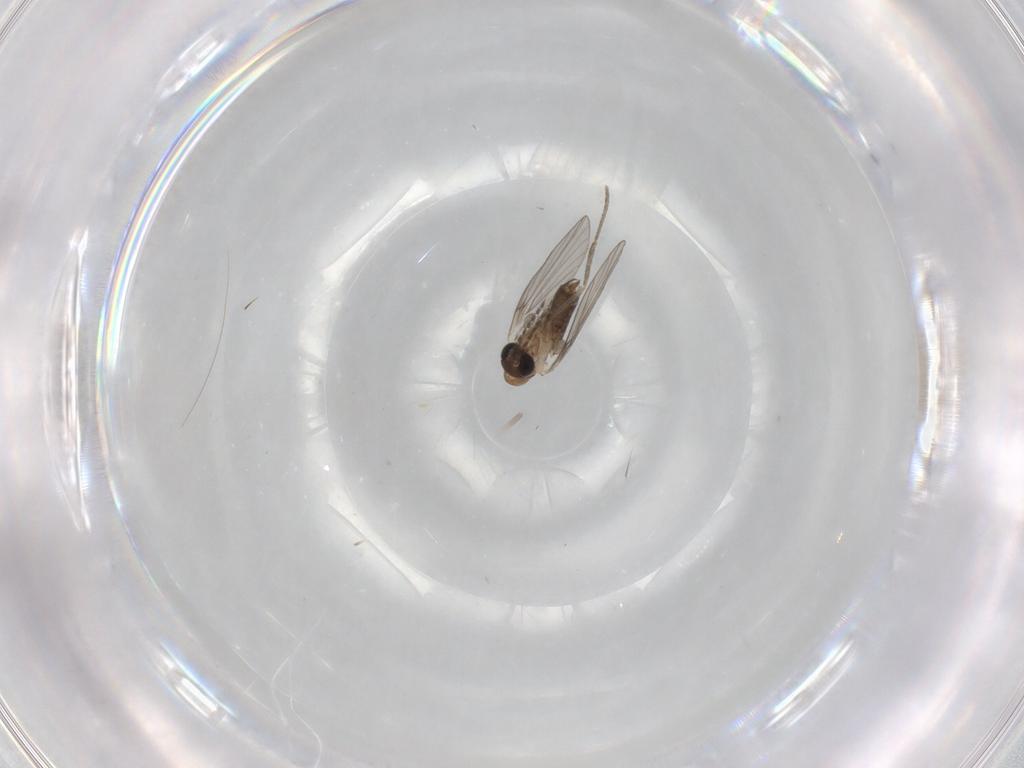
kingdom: Animalia
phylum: Arthropoda
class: Insecta
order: Diptera
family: Psychodidae
